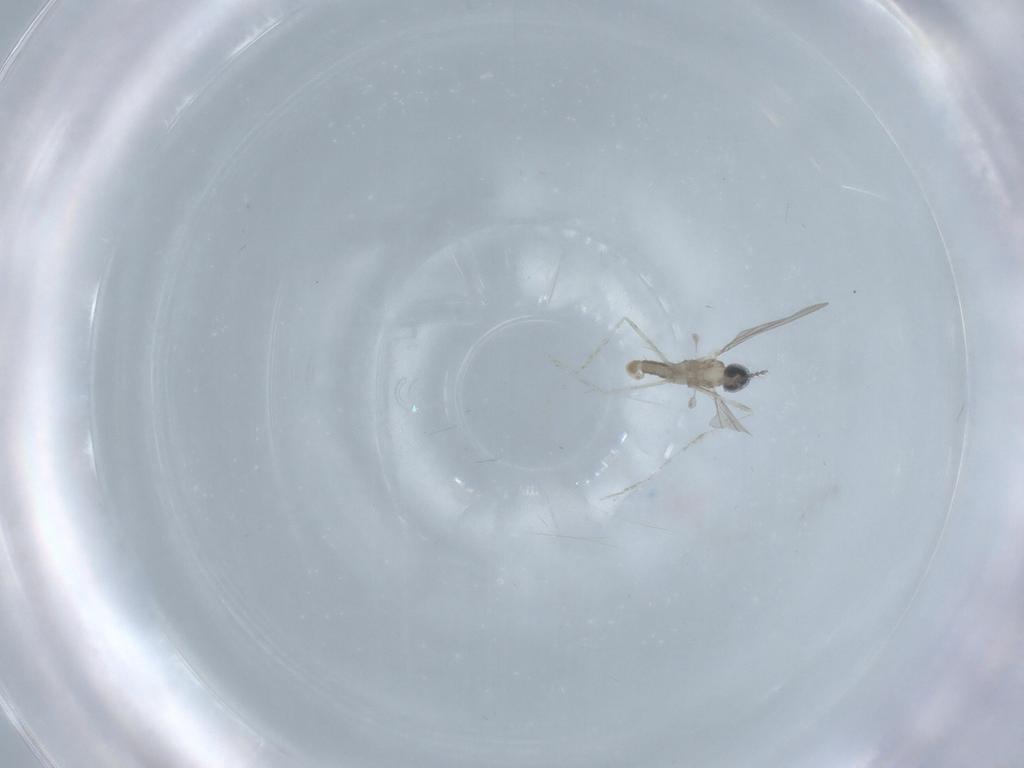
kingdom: Animalia
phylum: Arthropoda
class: Insecta
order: Diptera
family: Cecidomyiidae
